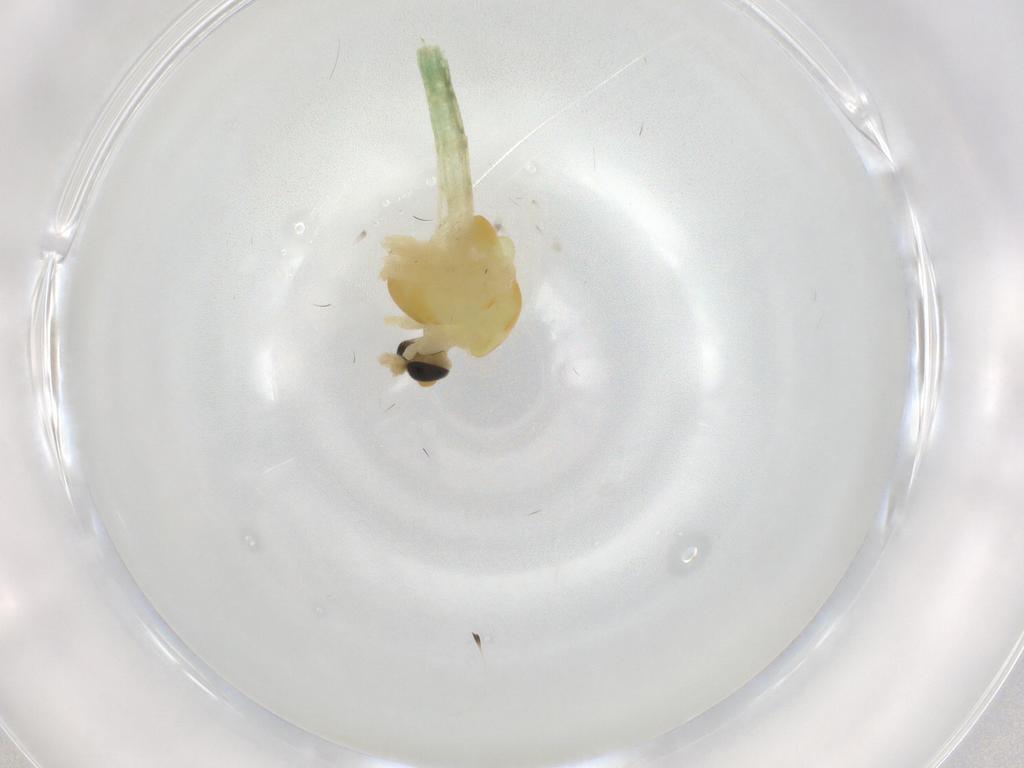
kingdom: Animalia
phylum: Arthropoda
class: Insecta
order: Diptera
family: Chironomidae
